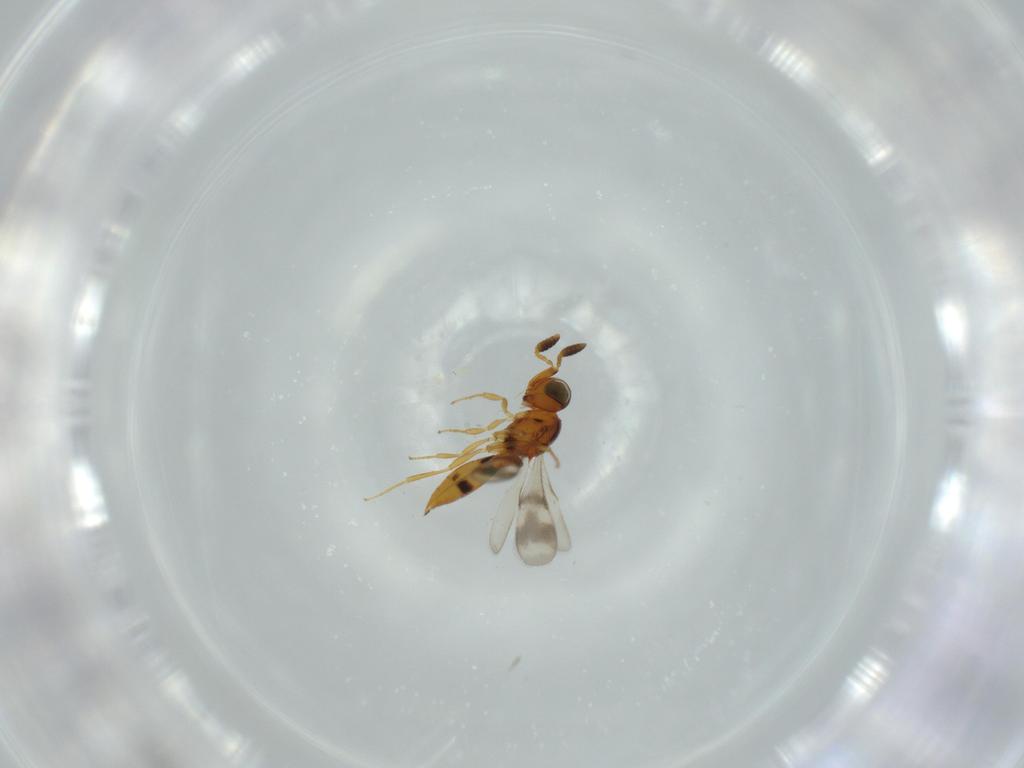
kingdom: Animalia
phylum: Arthropoda
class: Insecta
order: Hymenoptera
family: Scelionidae
